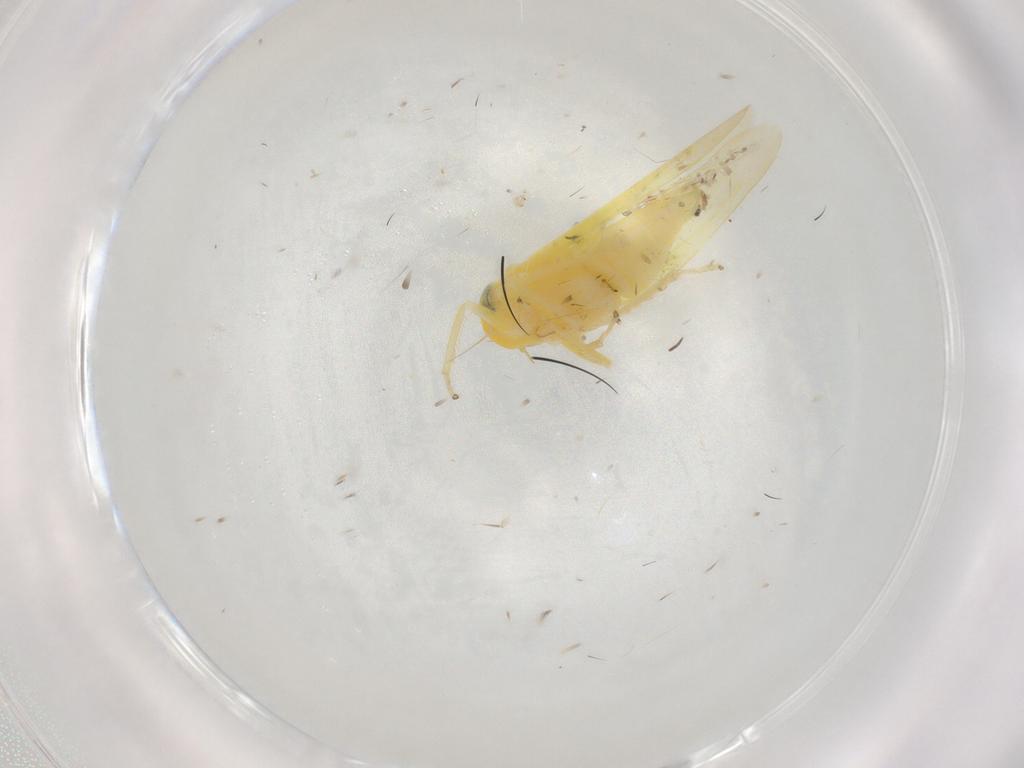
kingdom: Animalia
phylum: Arthropoda
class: Insecta
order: Hemiptera
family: Cicadellidae
